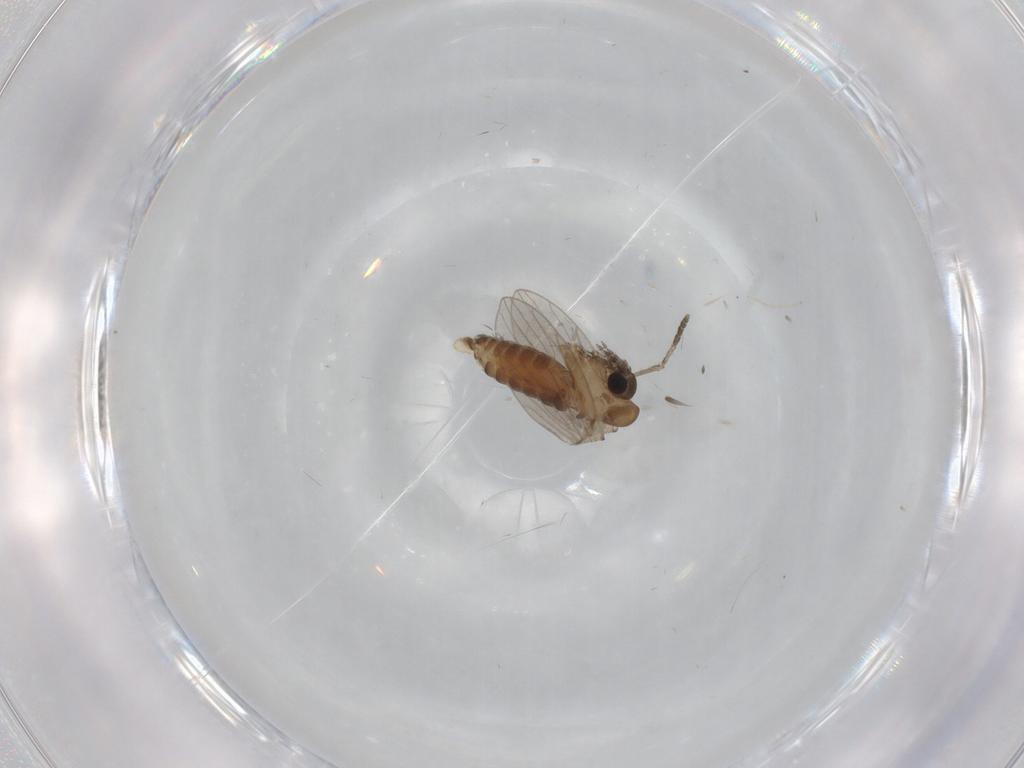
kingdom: Animalia
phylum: Arthropoda
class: Insecta
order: Diptera
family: Psychodidae
